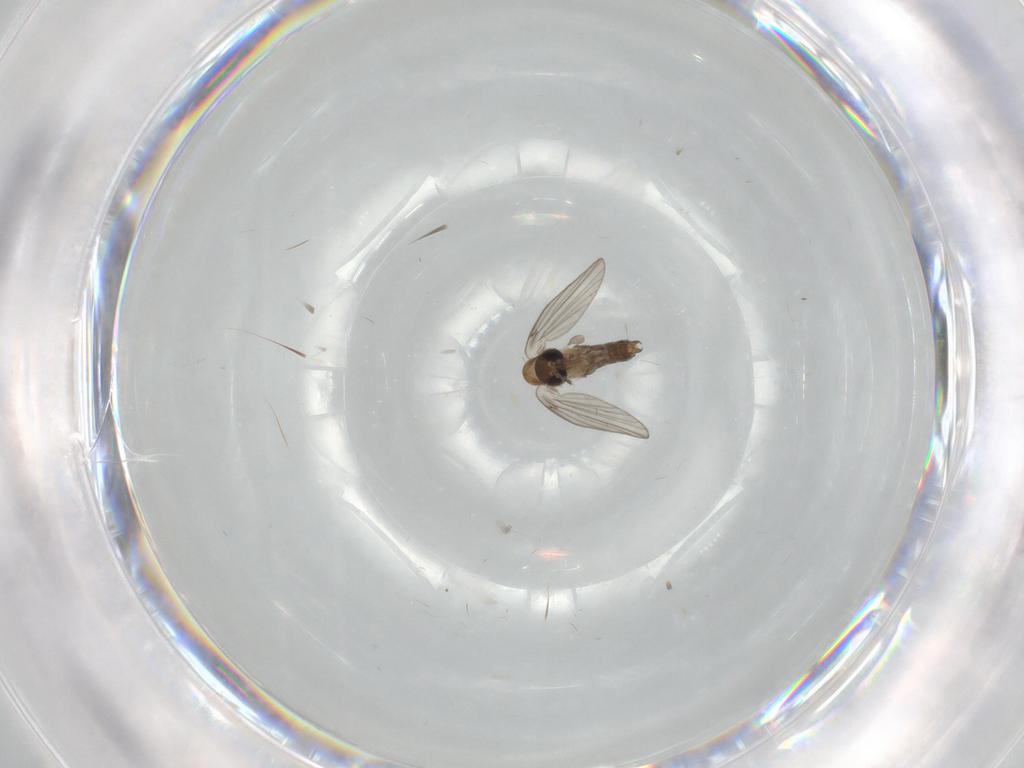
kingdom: Animalia
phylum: Arthropoda
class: Insecta
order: Diptera
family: Psychodidae
